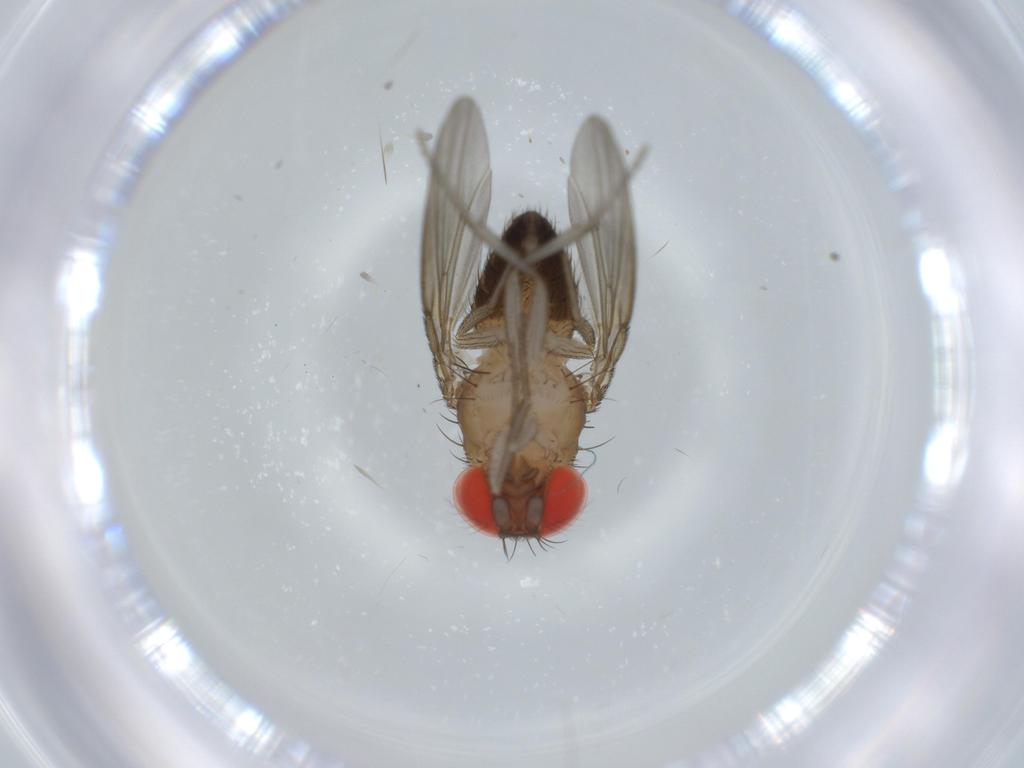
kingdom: Animalia
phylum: Arthropoda
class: Insecta
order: Diptera
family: Drosophilidae
